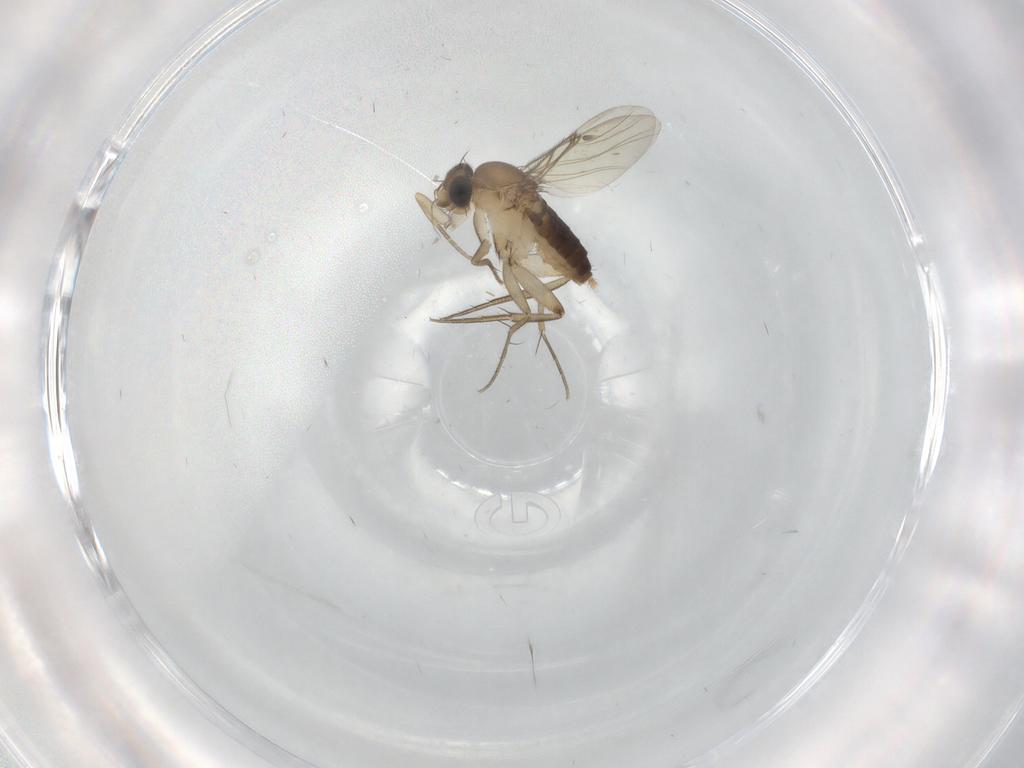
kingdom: Animalia
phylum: Arthropoda
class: Insecta
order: Diptera
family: Phoridae
